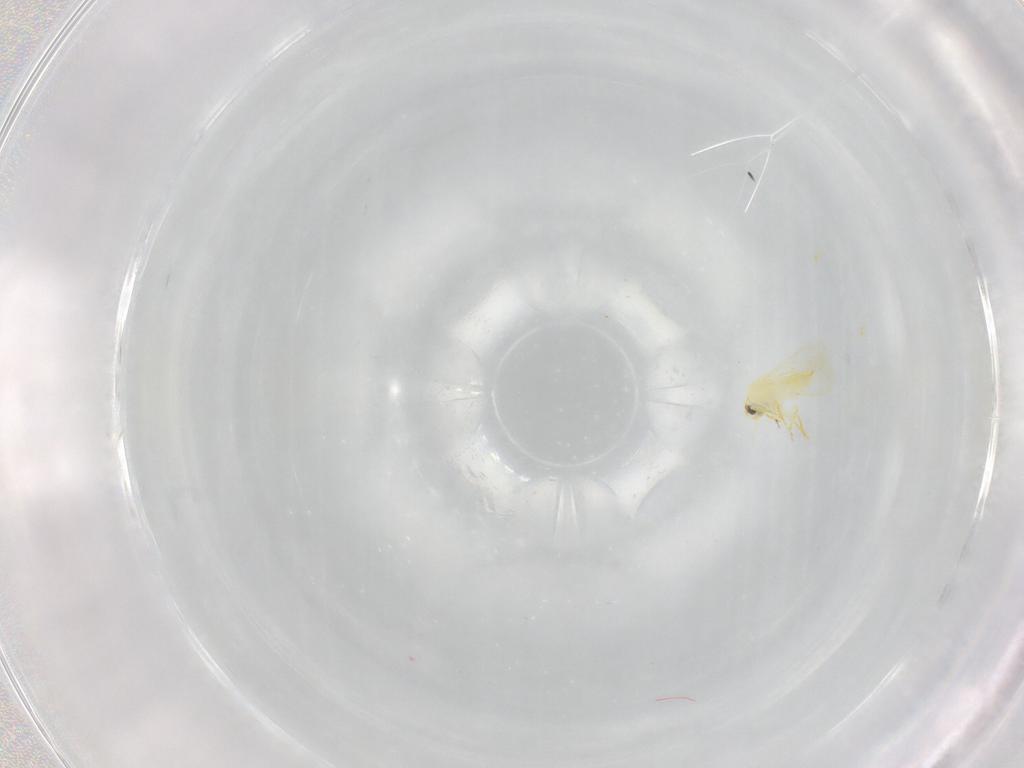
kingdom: Animalia
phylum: Arthropoda
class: Insecta
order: Hemiptera
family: Aleyrodidae
